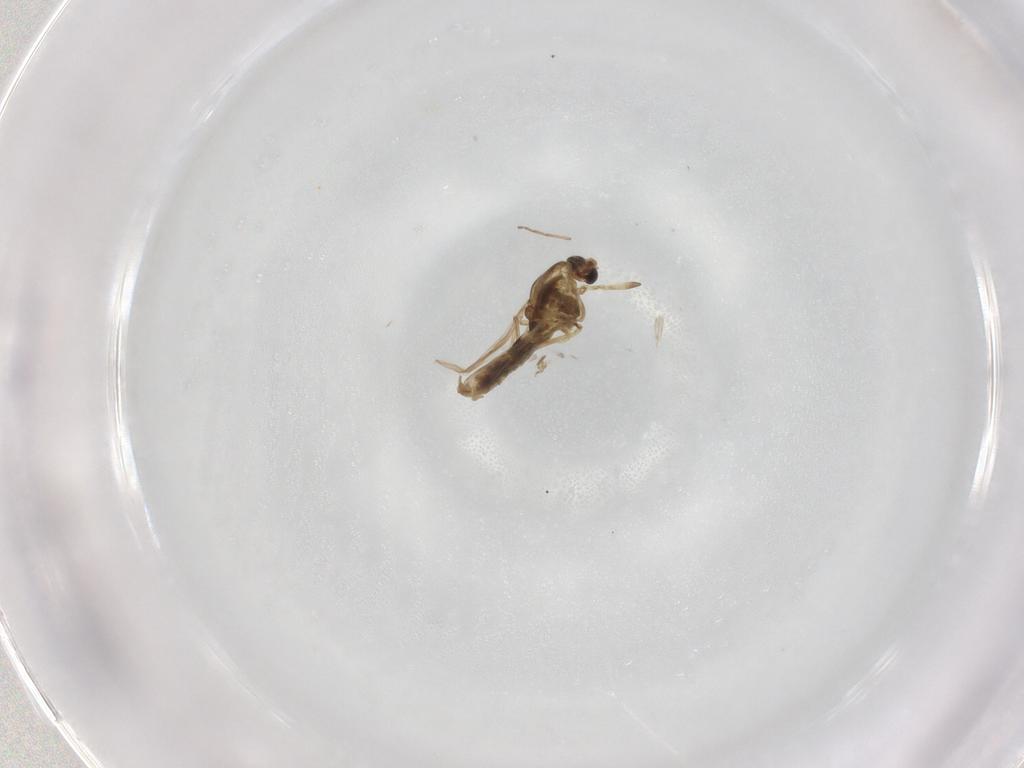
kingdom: Animalia
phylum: Arthropoda
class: Insecta
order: Diptera
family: Chironomidae
